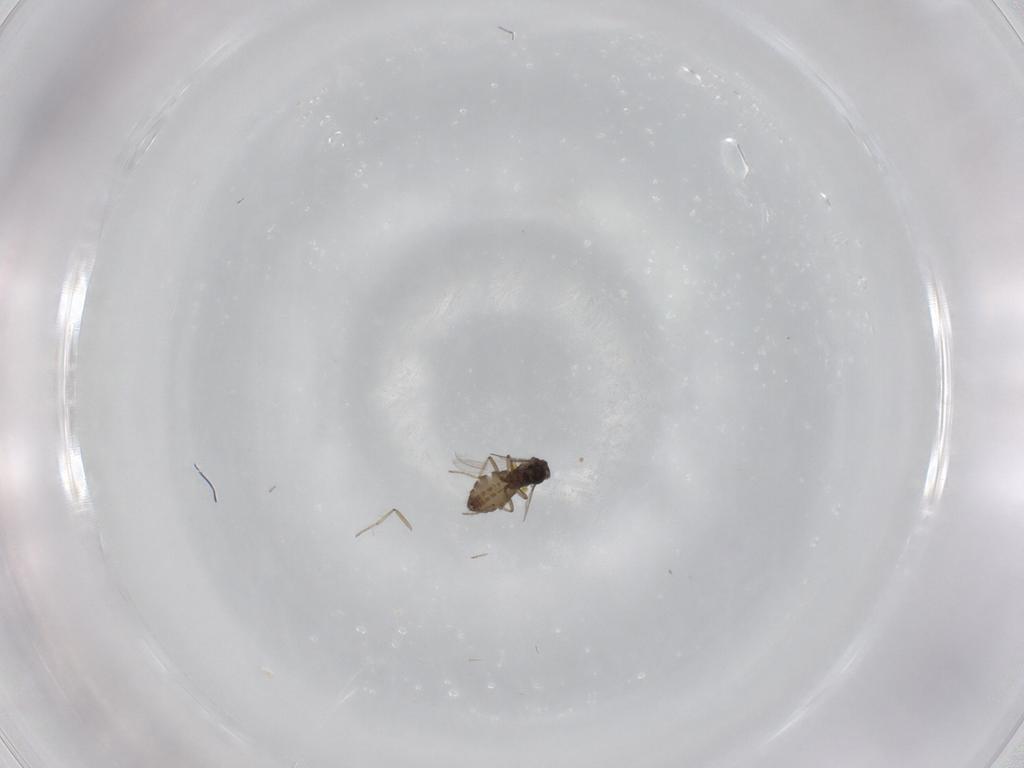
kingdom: Animalia
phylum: Arthropoda
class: Insecta
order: Diptera
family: Ceratopogonidae
